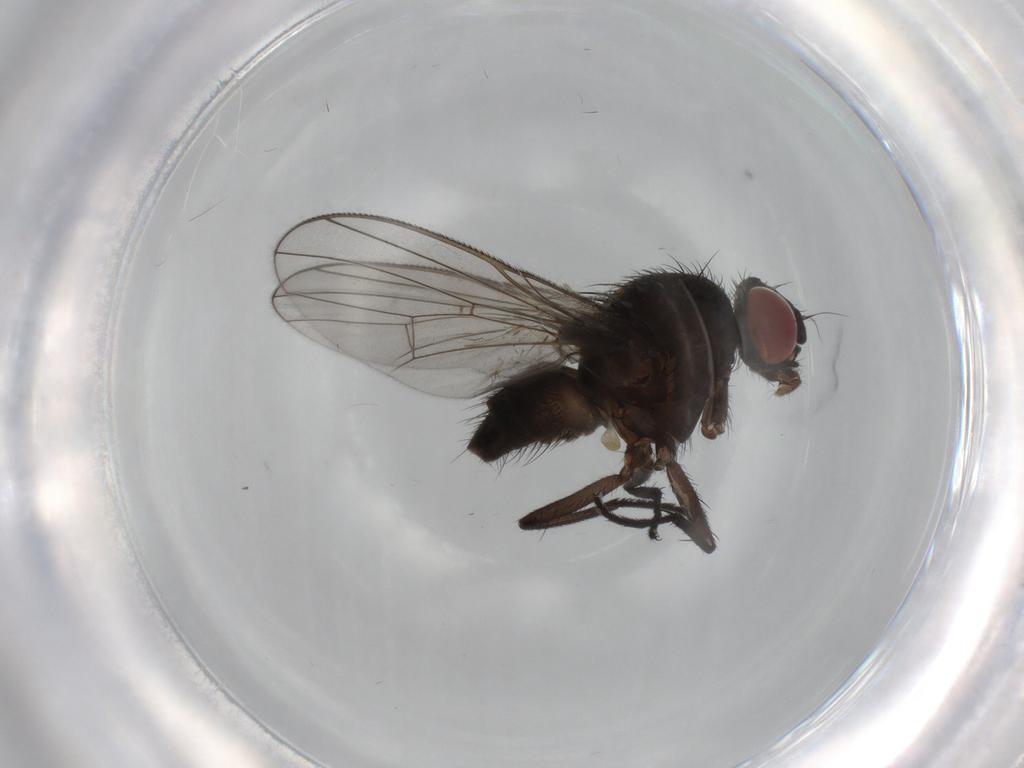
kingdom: Animalia
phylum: Arthropoda
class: Insecta
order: Diptera
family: Muscidae
